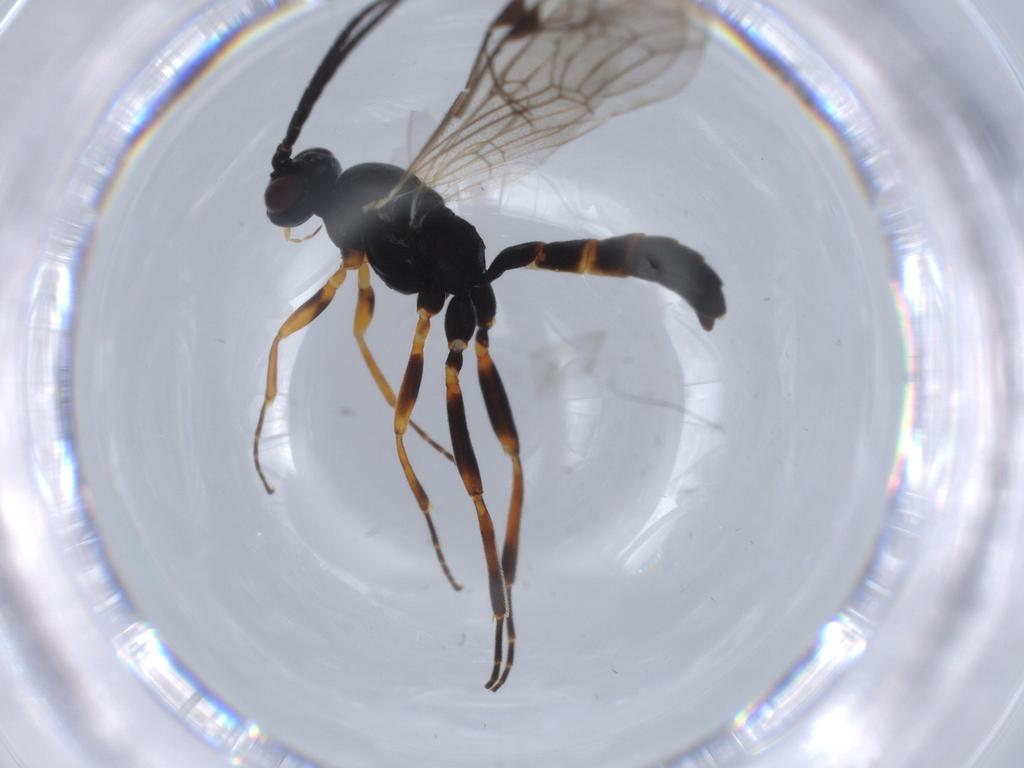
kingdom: Animalia
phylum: Arthropoda
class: Insecta
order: Hymenoptera
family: Ichneumonidae
